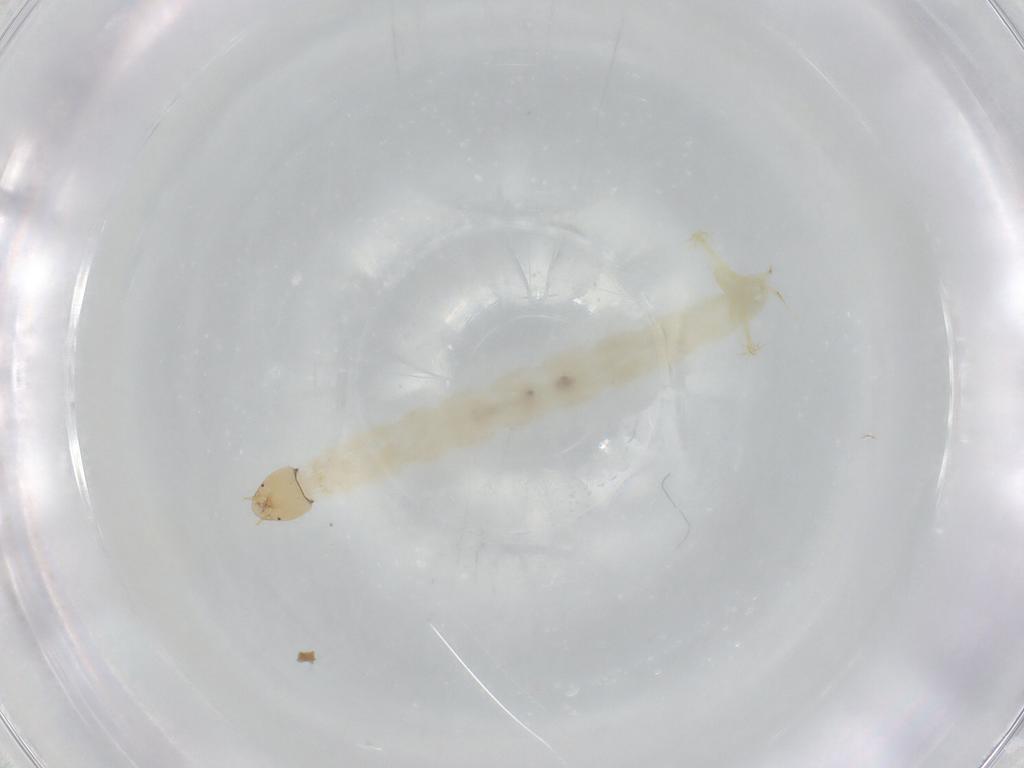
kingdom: Animalia
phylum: Arthropoda
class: Insecta
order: Diptera
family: Chironomidae
